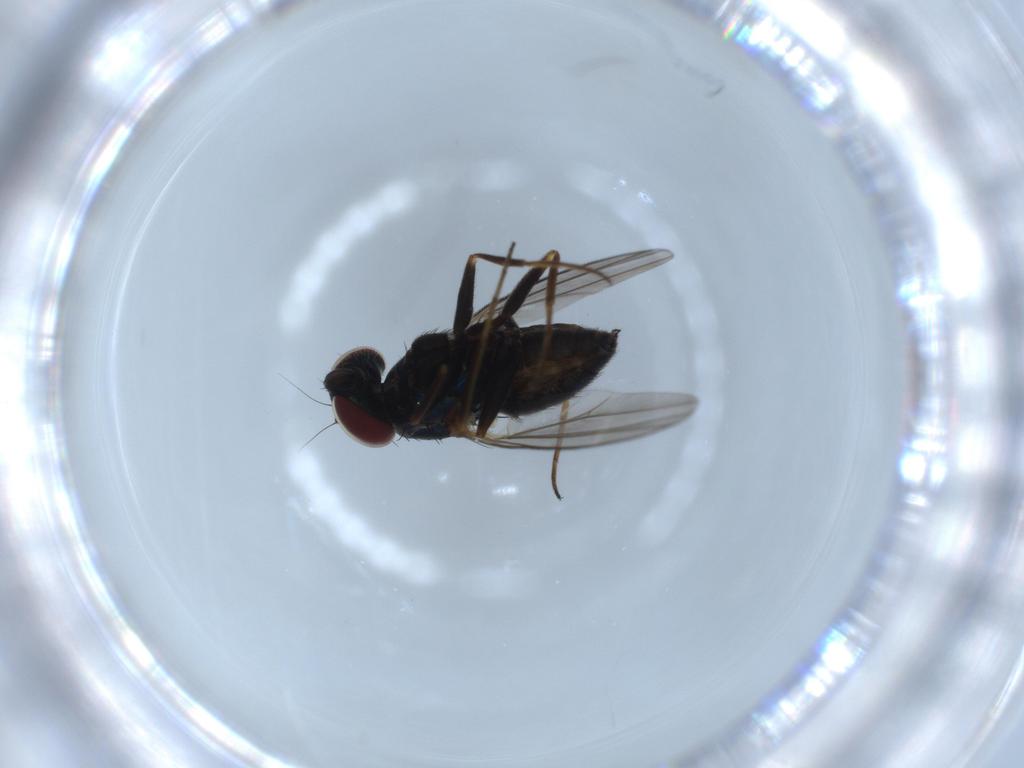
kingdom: Animalia
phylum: Arthropoda
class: Insecta
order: Diptera
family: Dolichopodidae
